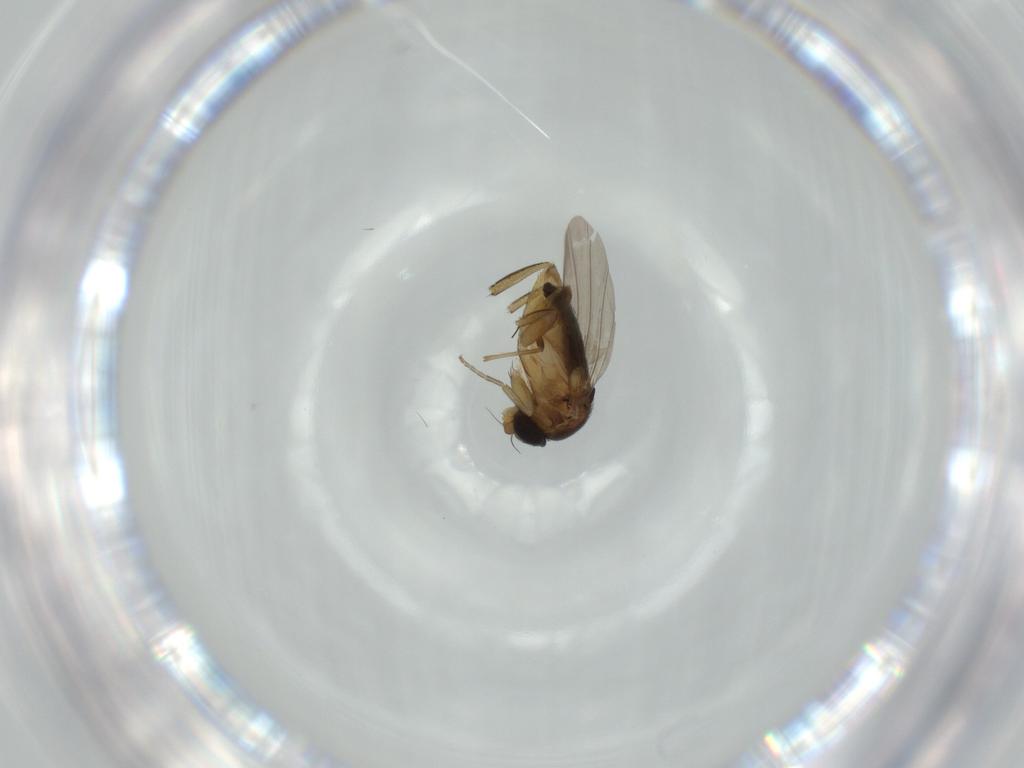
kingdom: Animalia
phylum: Arthropoda
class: Insecta
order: Diptera
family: Phoridae
